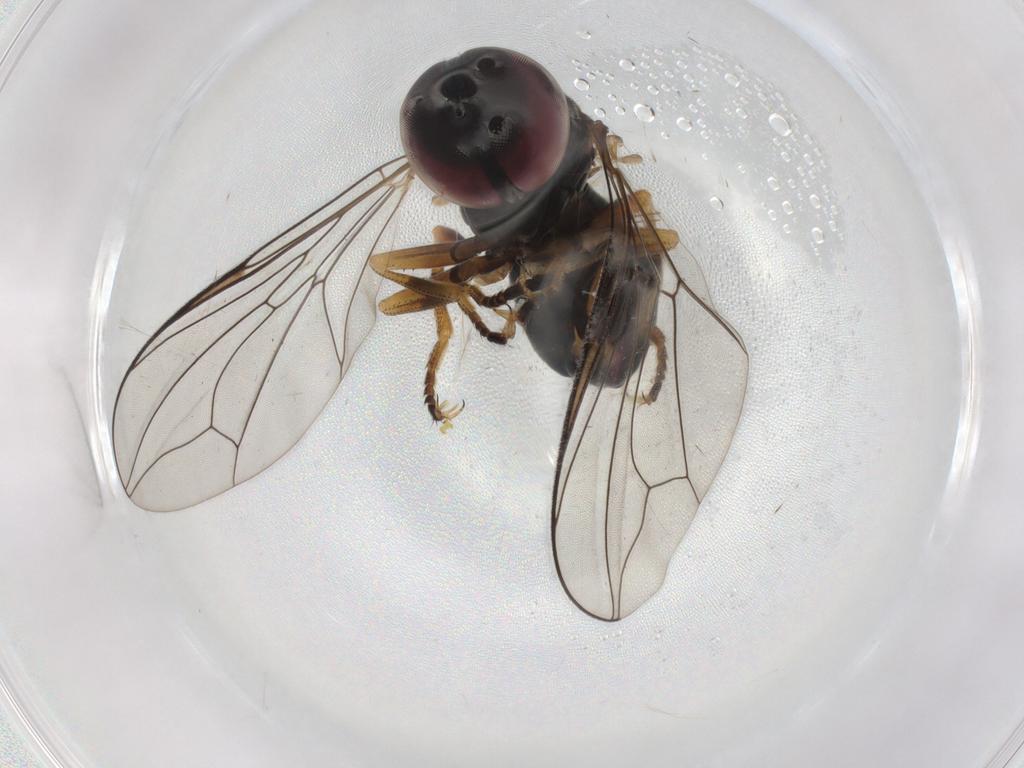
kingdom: Animalia
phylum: Arthropoda
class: Insecta
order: Diptera
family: Pipunculidae
